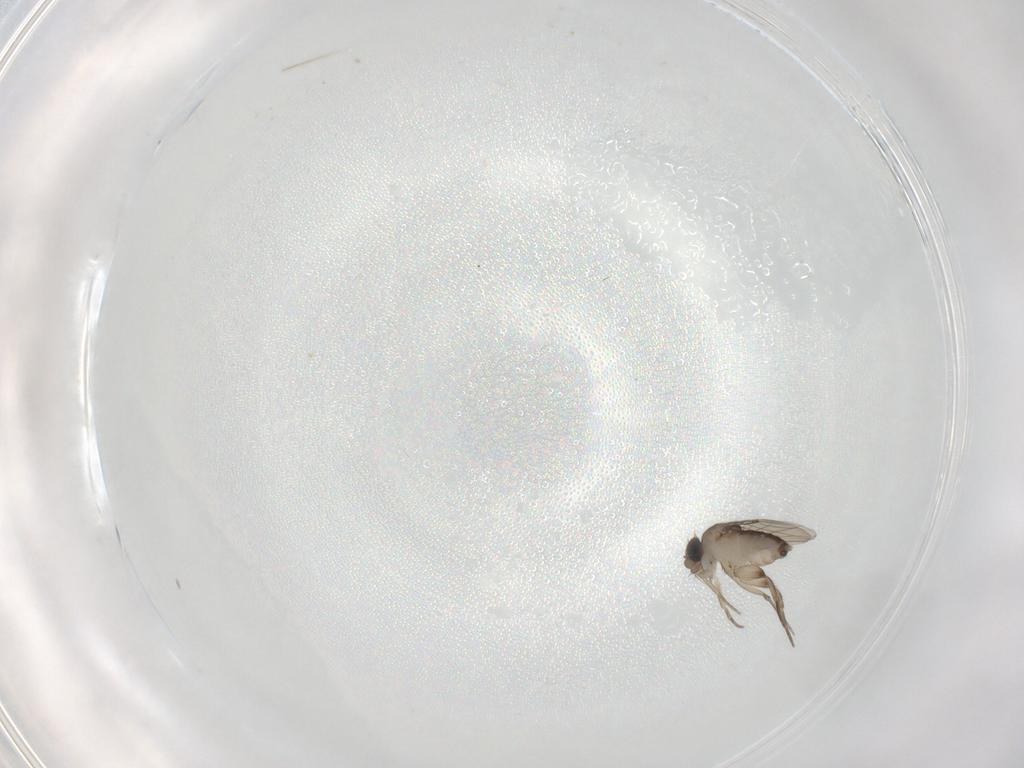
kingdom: Animalia
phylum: Arthropoda
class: Insecta
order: Diptera
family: Phoridae
